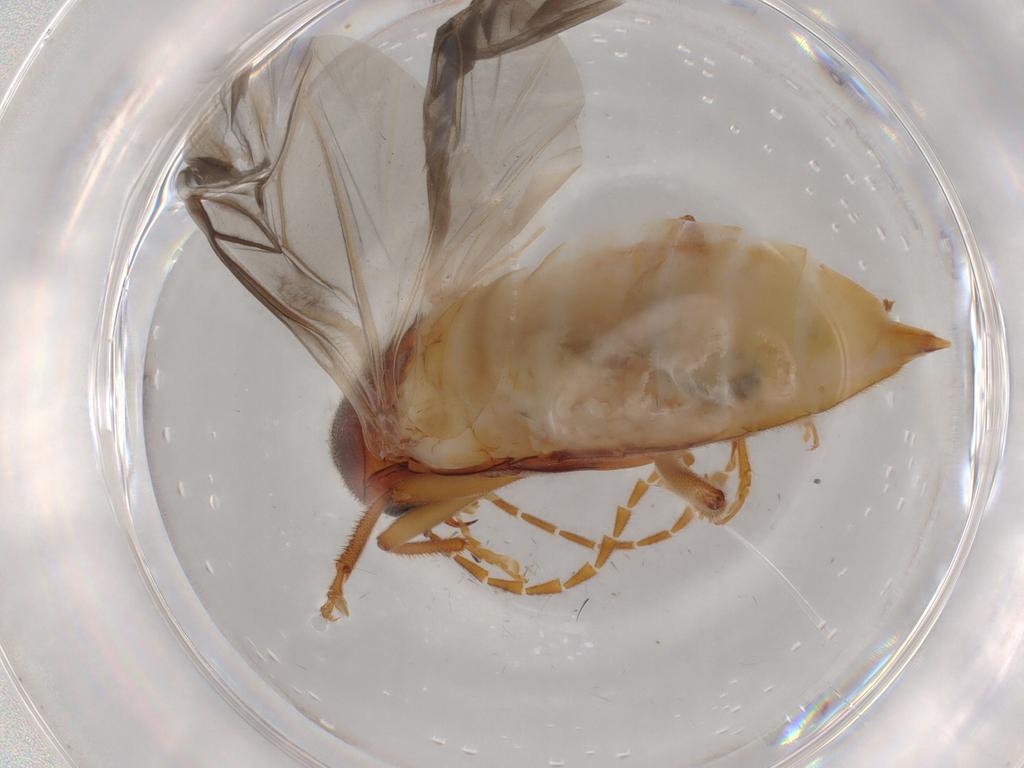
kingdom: Animalia
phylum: Arthropoda
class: Insecta
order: Coleoptera
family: Ptilodactylidae
